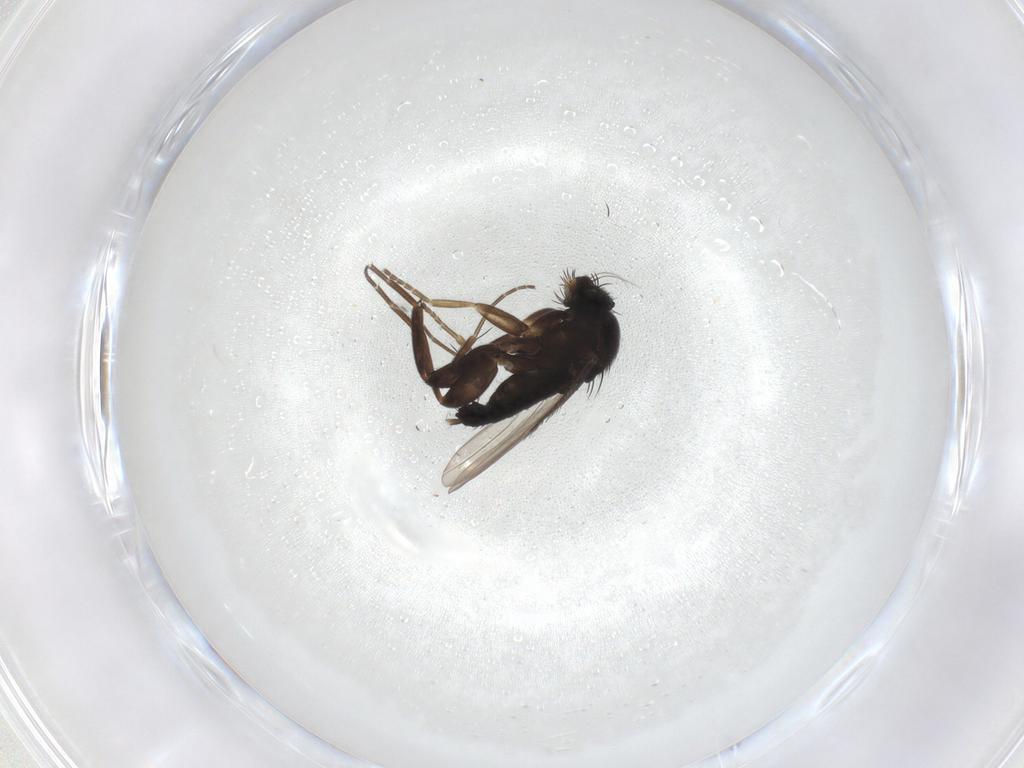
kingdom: Animalia
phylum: Arthropoda
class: Insecta
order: Diptera
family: Phoridae
